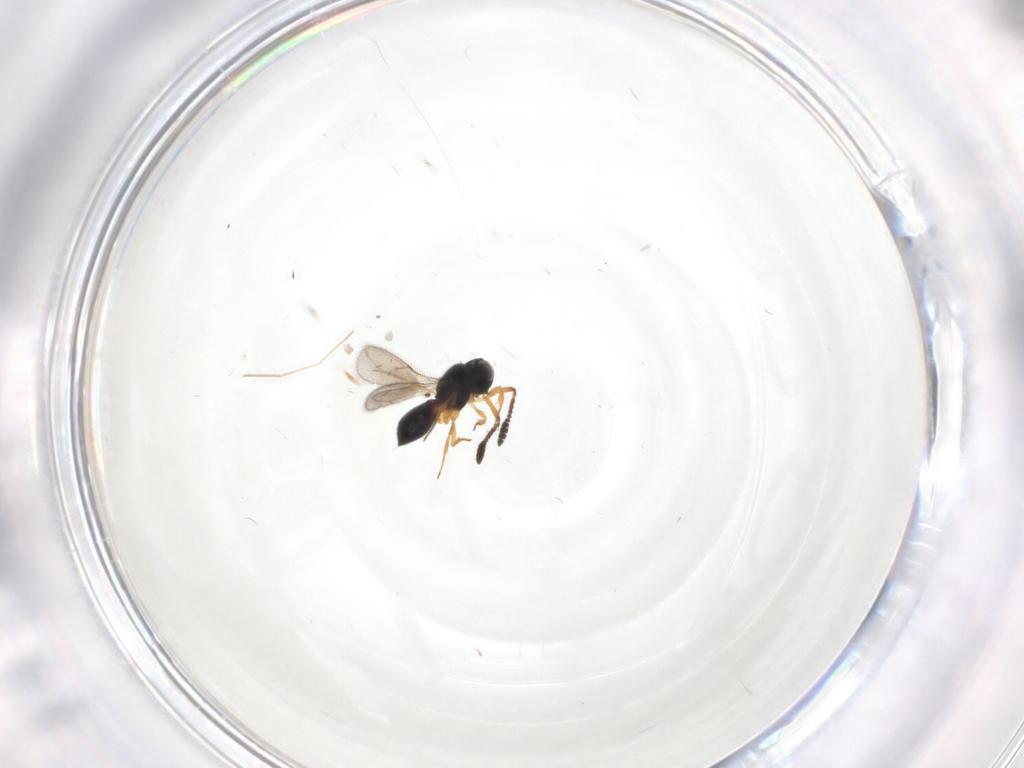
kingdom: Animalia
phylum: Arthropoda
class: Insecta
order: Hymenoptera
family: Scelionidae
